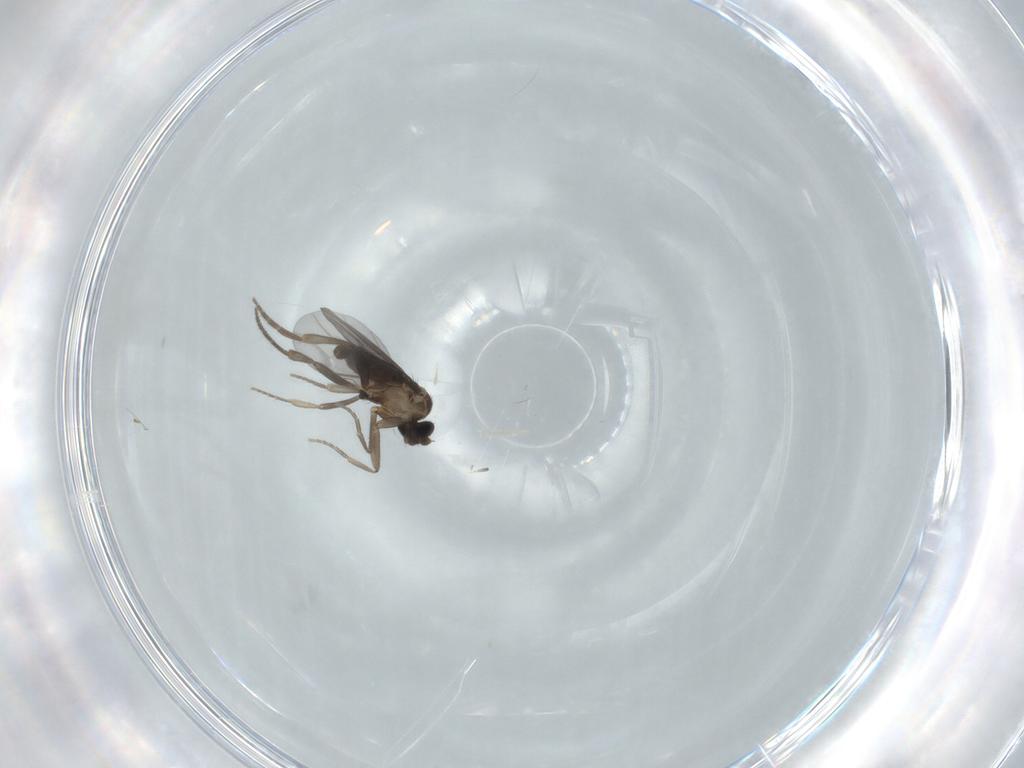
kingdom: Animalia
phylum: Arthropoda
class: Insecta
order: Diptera
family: Phoridae
